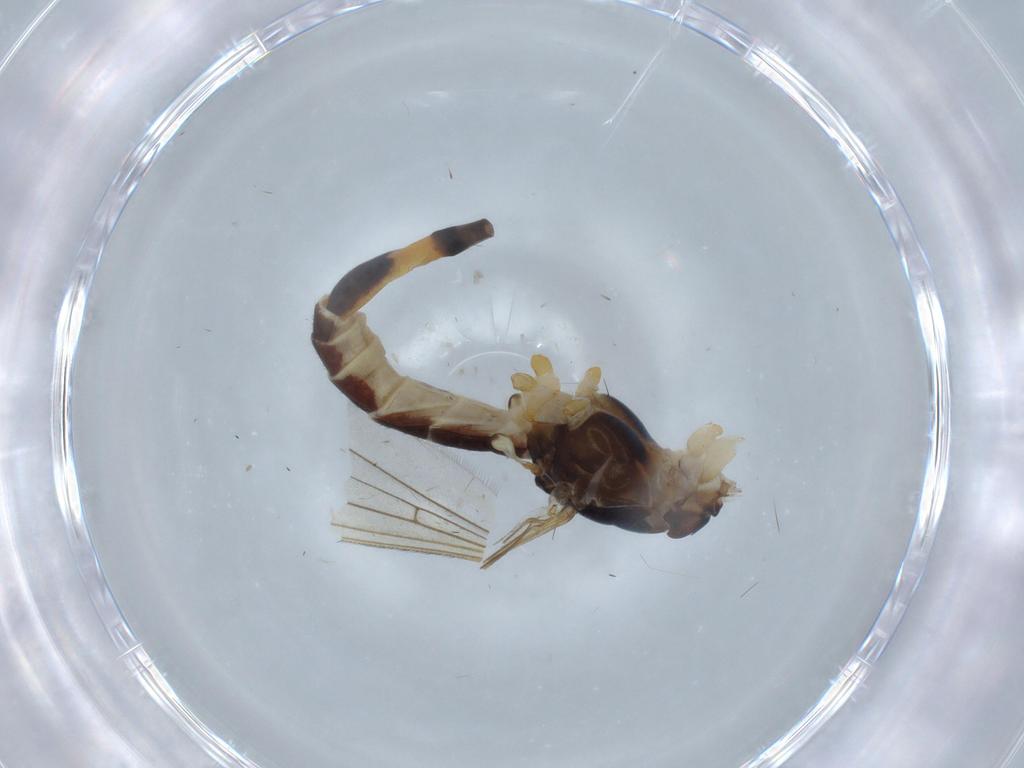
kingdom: Animalia
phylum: Arthropoda
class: Insecta
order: Diptera
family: Micropezidae
